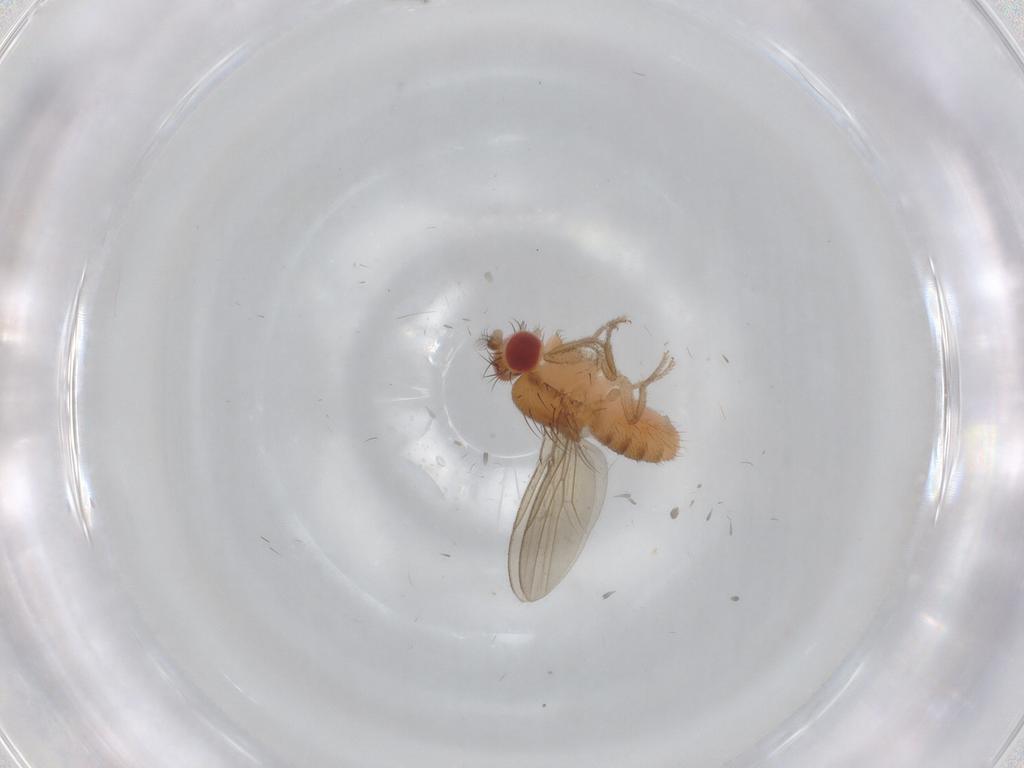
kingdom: Animalia
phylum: Arthropoda
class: Insecta
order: Diptera
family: Drosophilidae
